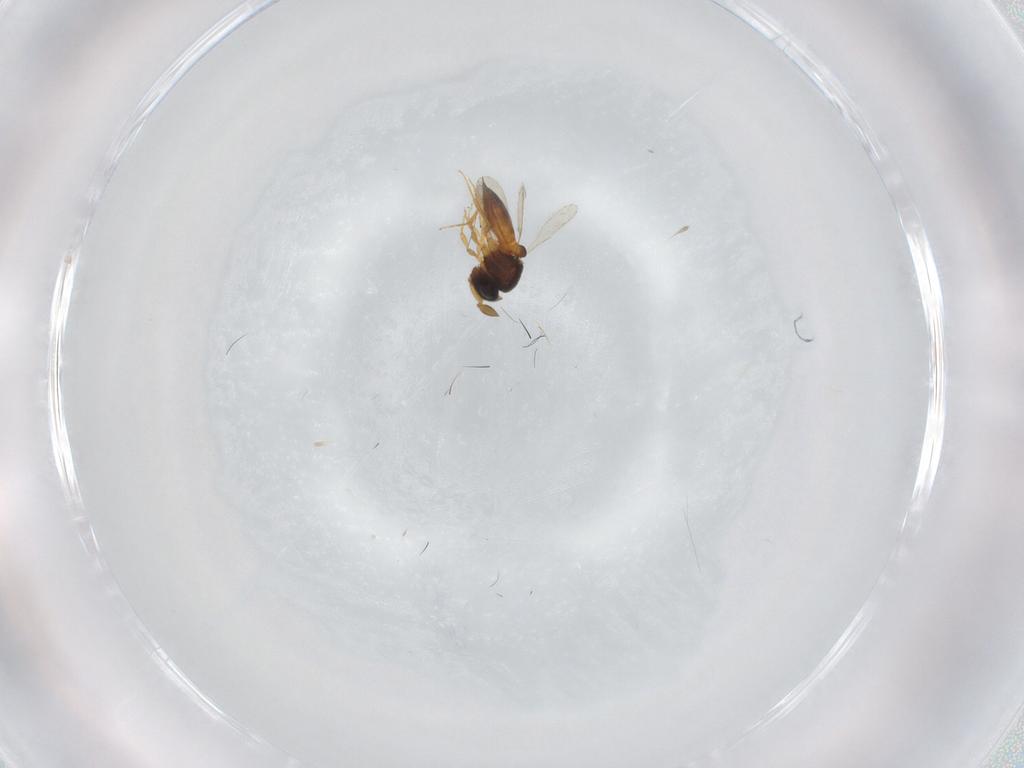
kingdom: Animalia
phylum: Arthropoda
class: Insecta
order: Hymenoptera
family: Scelionidae
